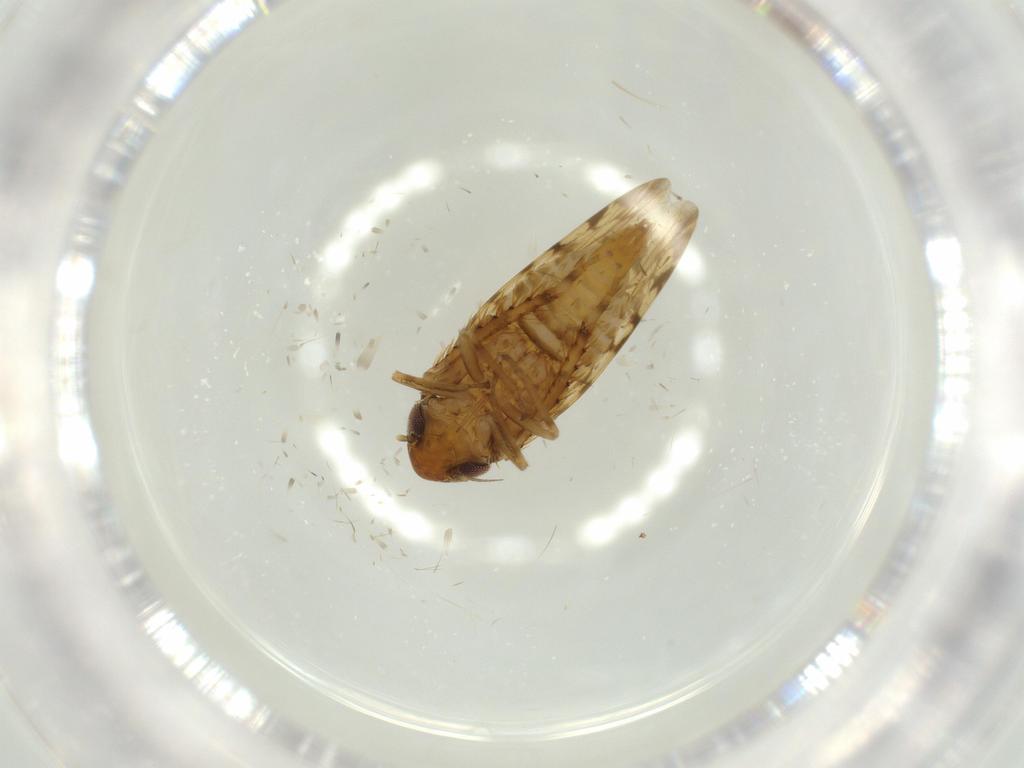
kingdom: Animalia
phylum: Arthropoda
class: Insecta
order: Hemiptera
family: Cicadellidae
